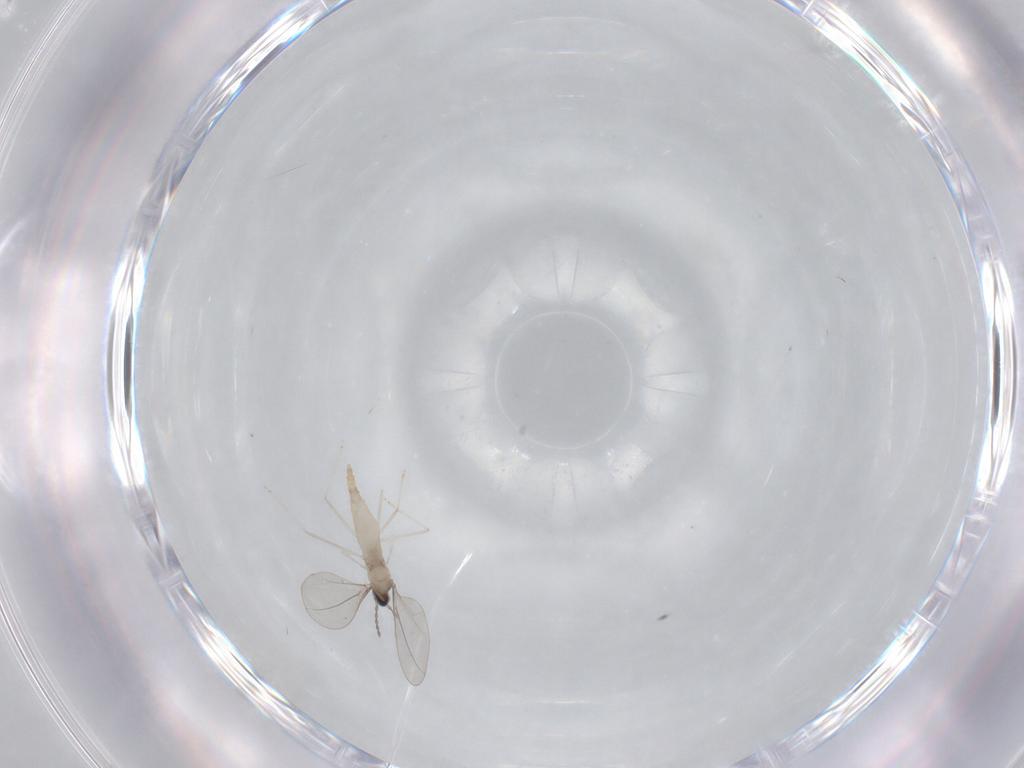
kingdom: Animalia
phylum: Arthropoda
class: Insecta
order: Diptera
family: Cecidomyiidae
